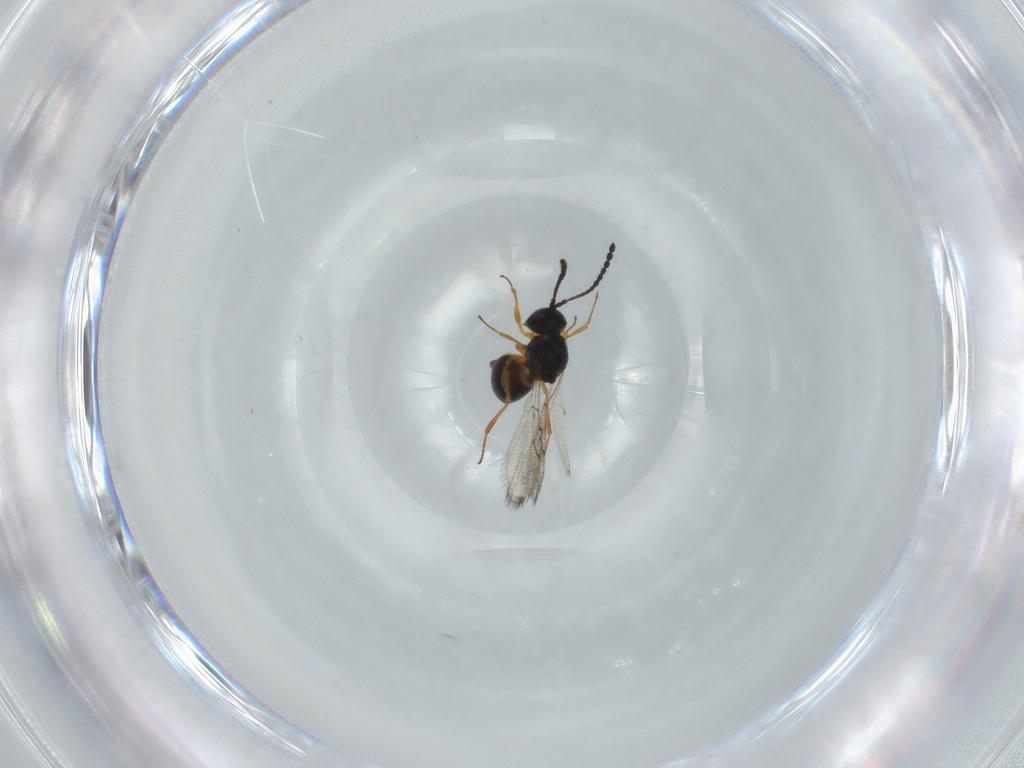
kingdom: Animalia
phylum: Arthropoda
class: Insecta
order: Hymenoptera
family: Figitidae
